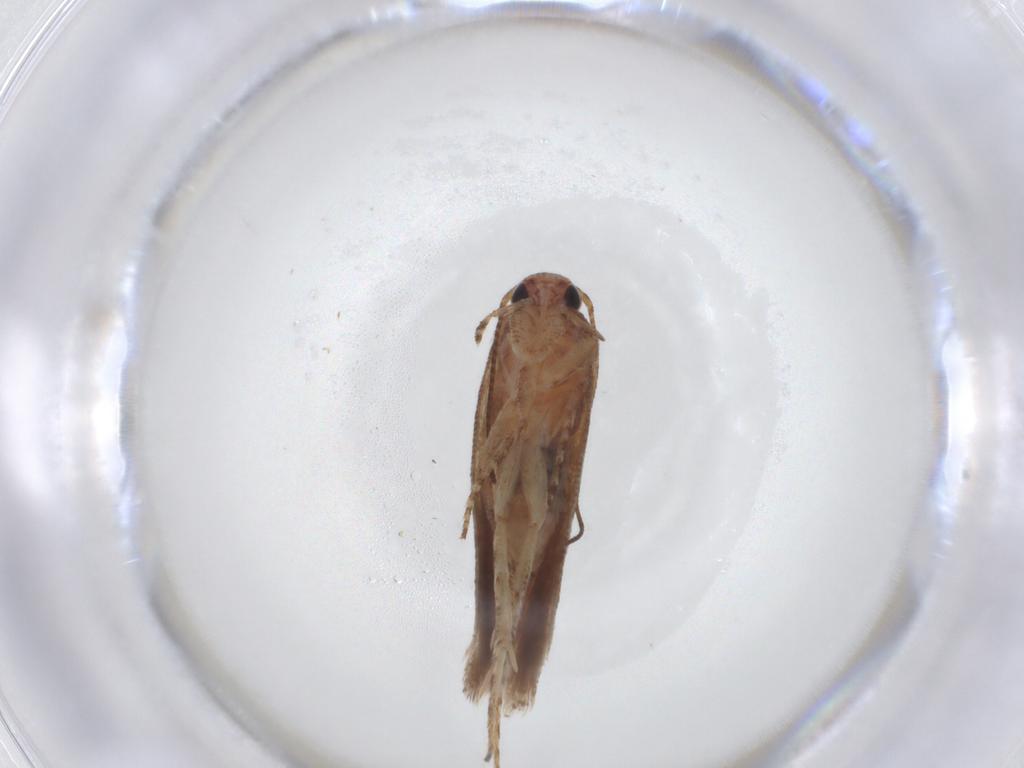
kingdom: Animalia
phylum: Arthropoda
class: Insecta
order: Lepidoptera
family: Gelechiidae
